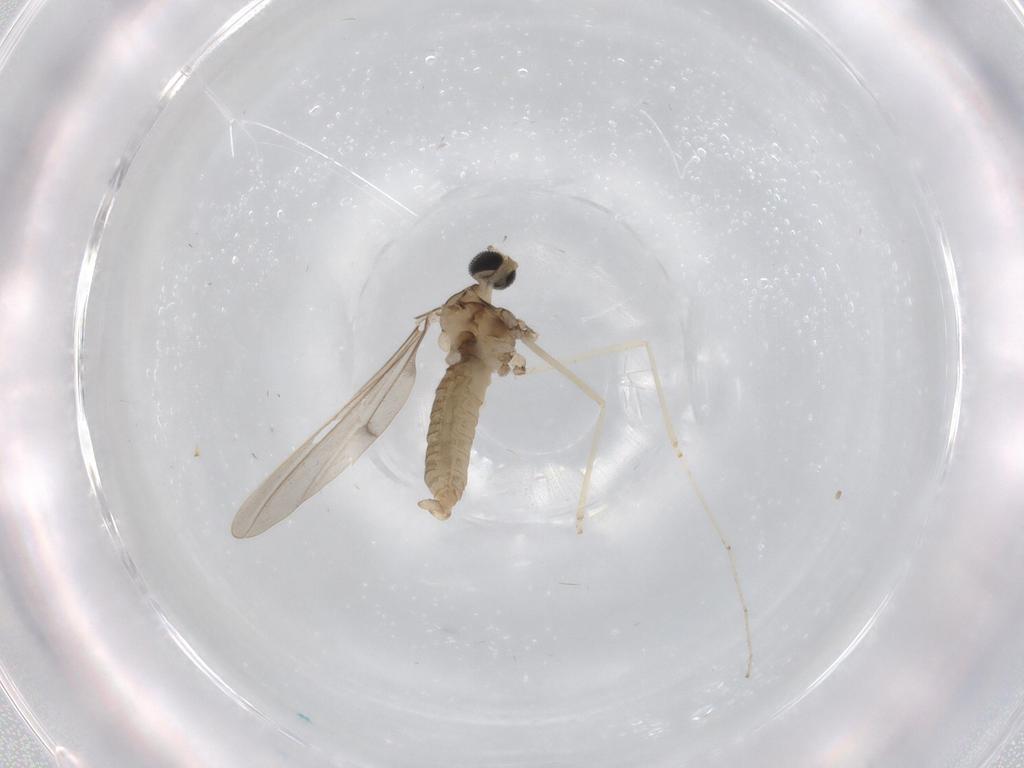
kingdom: Animalia
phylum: Arthropoda
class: Insecta
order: Diptera
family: Cecidomyiidae
